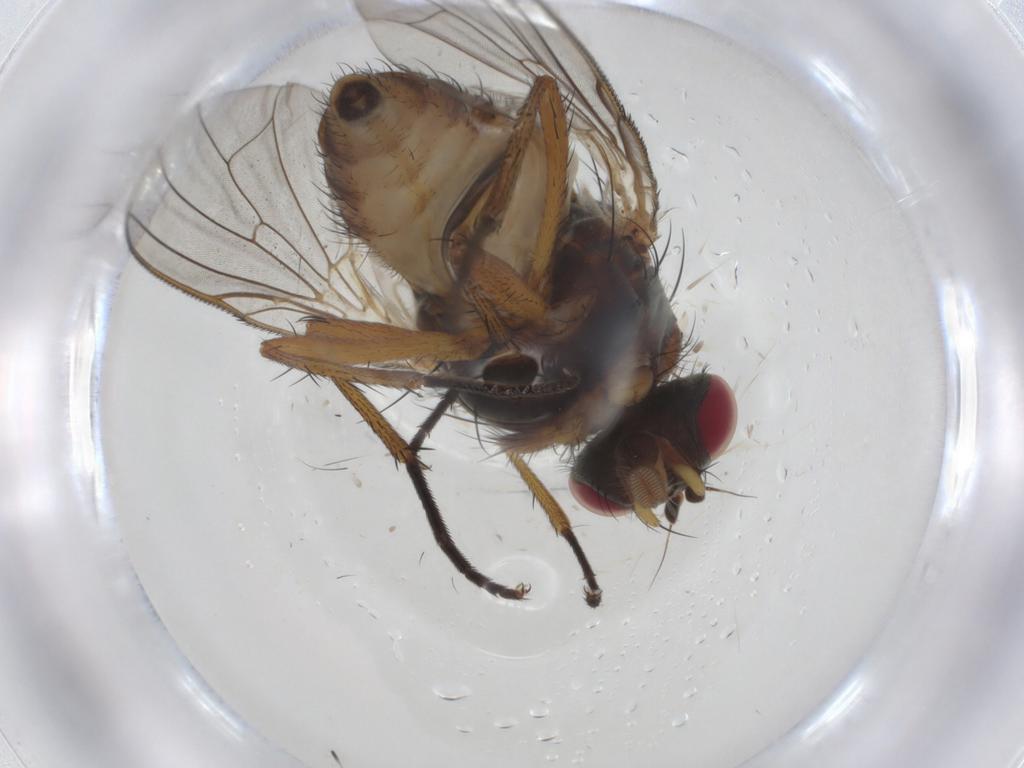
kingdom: Animalia
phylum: Arthropoda
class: Insecta
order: Diptera
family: Anthomyiidae
